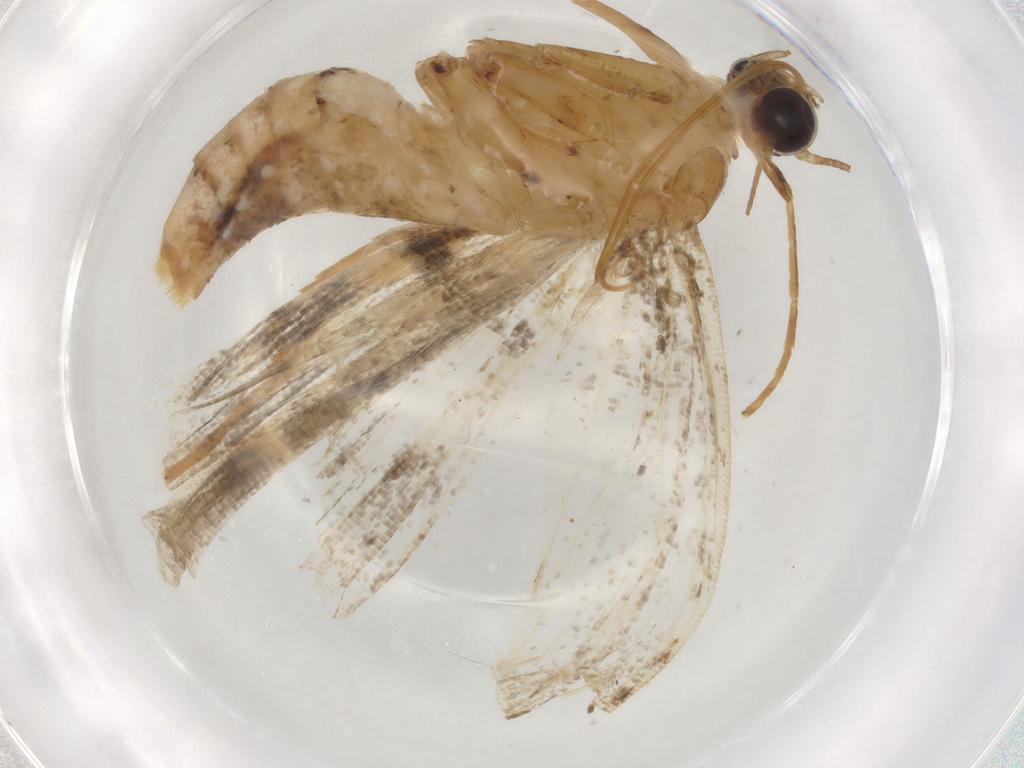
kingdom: Animalia
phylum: Arthropoda
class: Insecta
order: Lepidoptera
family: Crambidae
